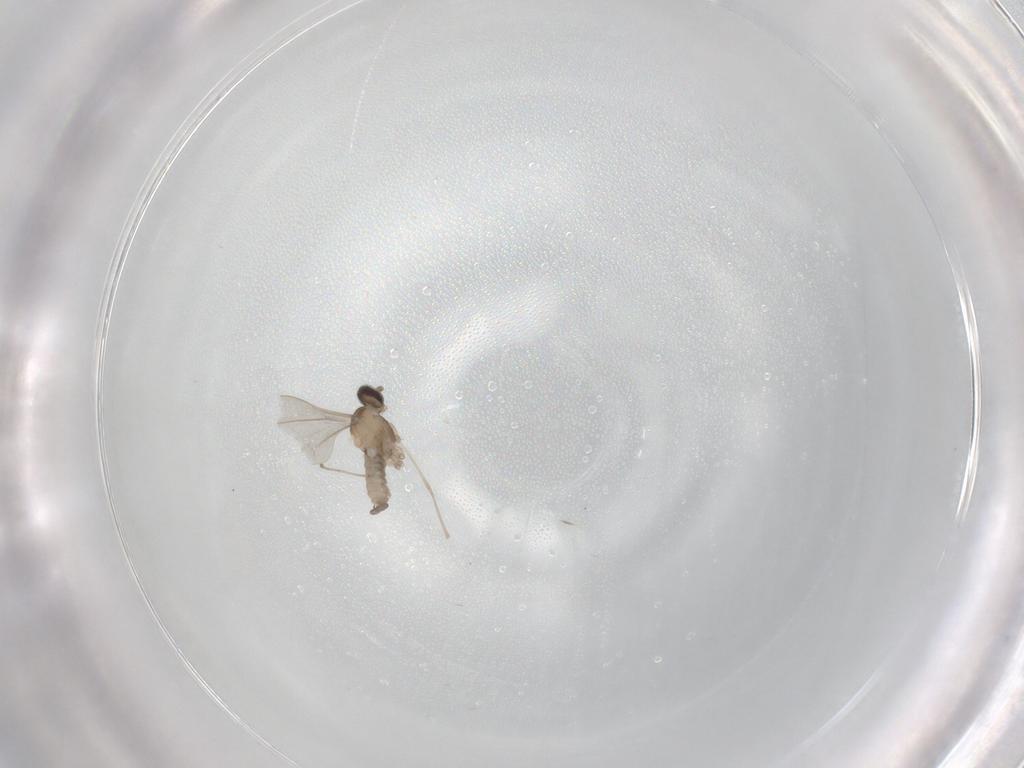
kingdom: Animalia
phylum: Arthropoda
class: Insecta
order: Diptera
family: Cecidomyiidae
